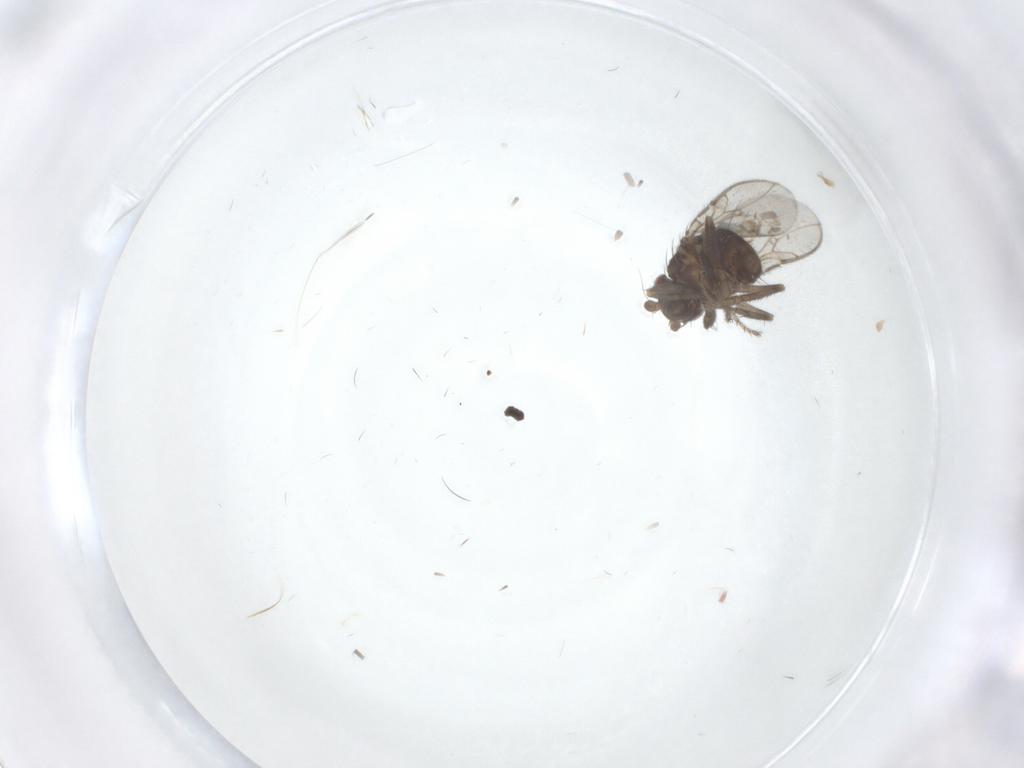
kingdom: Animalia
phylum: Arthropoda
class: Insecta
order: Diptera
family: Sphaeroceridae
